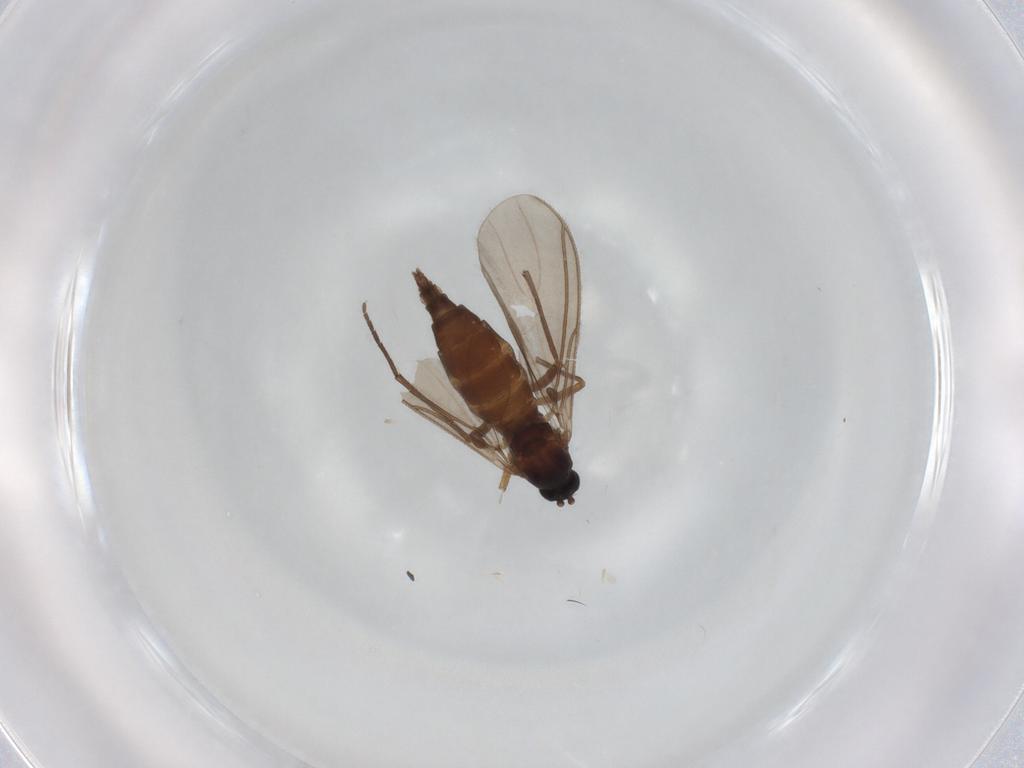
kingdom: Animalia
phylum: Arthropoda
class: Insecta
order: Diptera
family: Sciaridae
